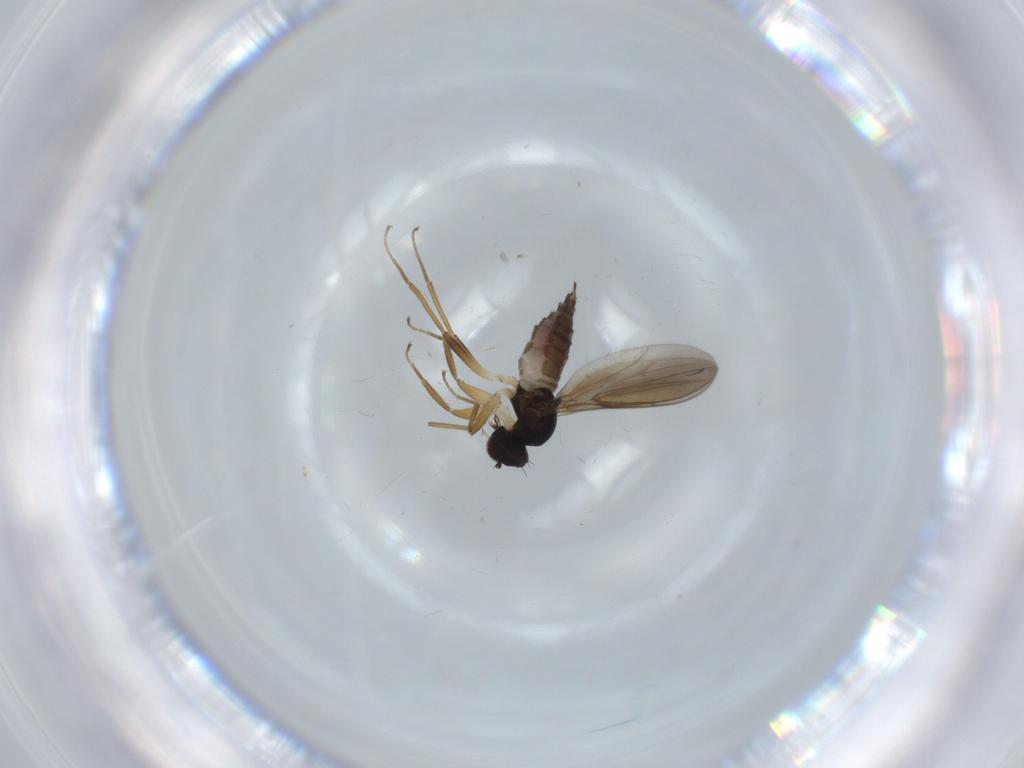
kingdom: Animalia
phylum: Arthropoda
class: Insecta
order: Diptera
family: Hybotidae
